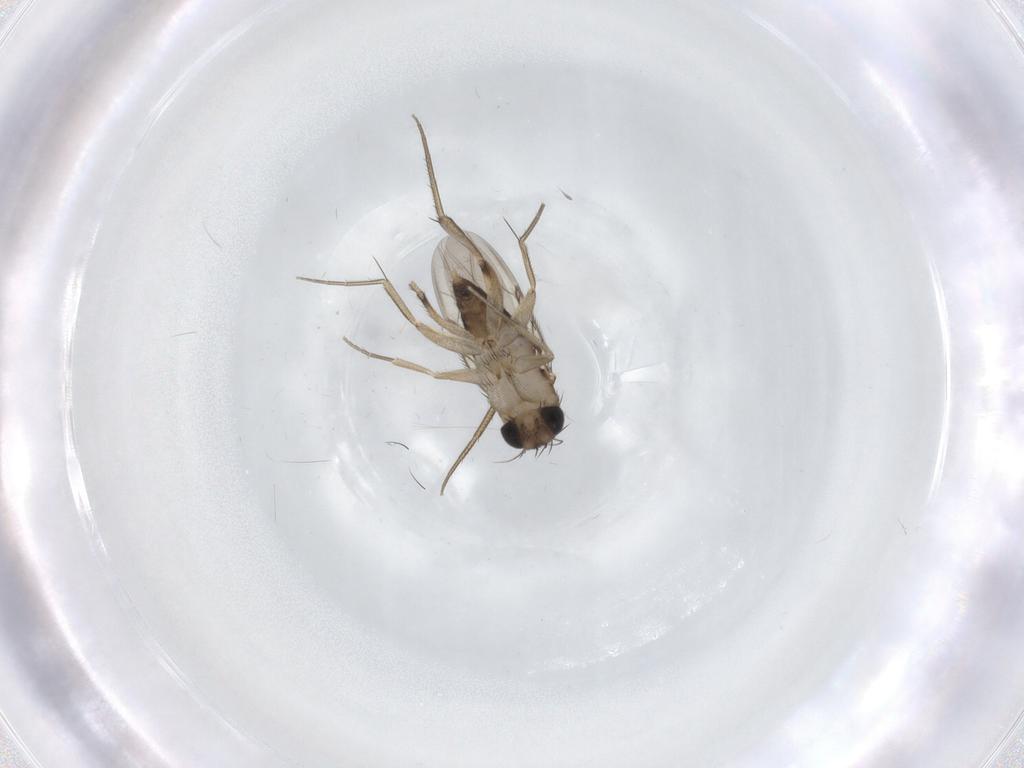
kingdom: Animalia
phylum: Arthropoda
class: Insecta
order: Diptera
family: Phoridae
